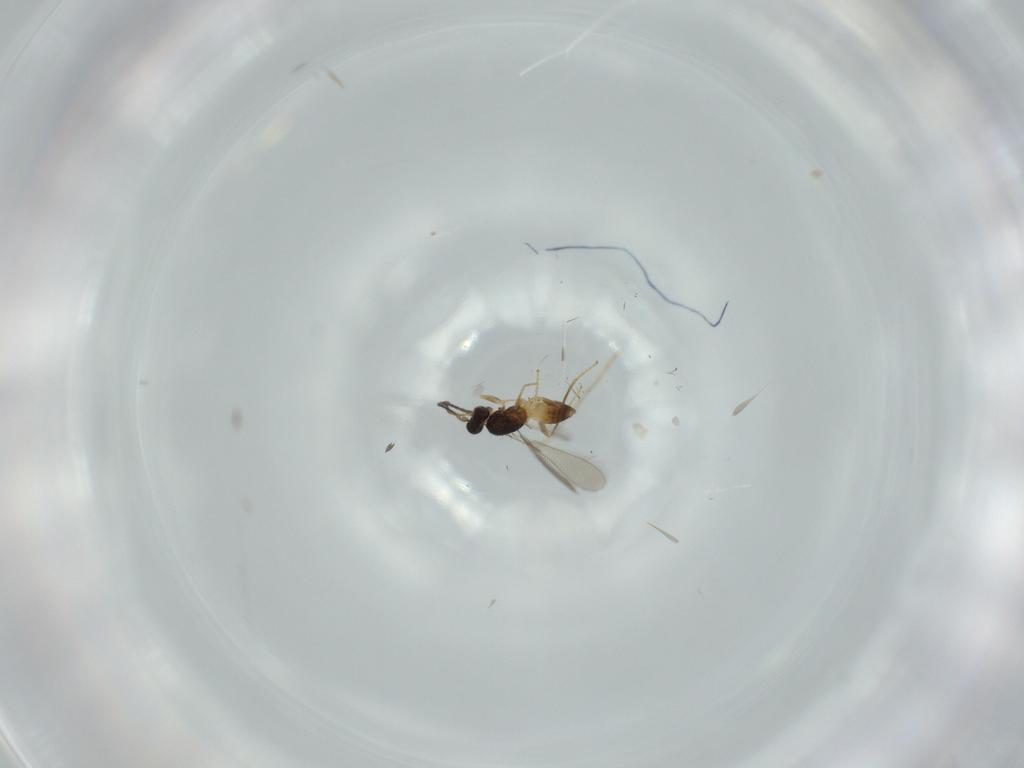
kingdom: Animalia
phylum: Arthropoda
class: Insecta
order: Hymenoptera
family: Mymaridae
